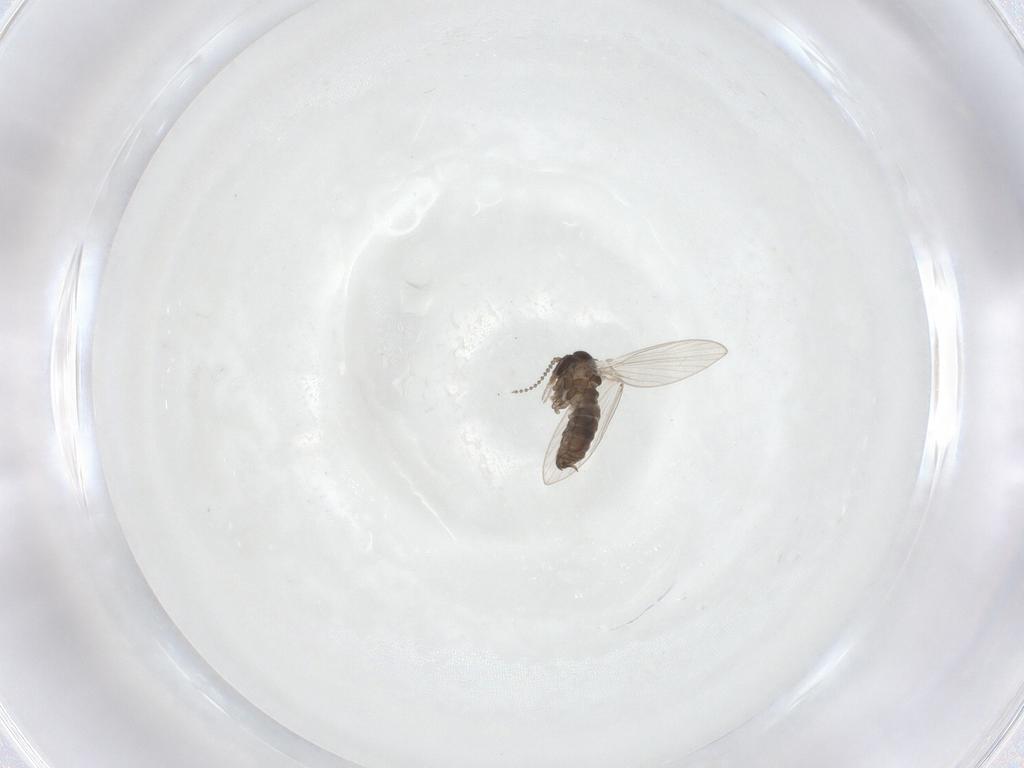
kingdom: Animalia
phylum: Arthropoda
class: Insecta
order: Diptera
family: Psychodidae
